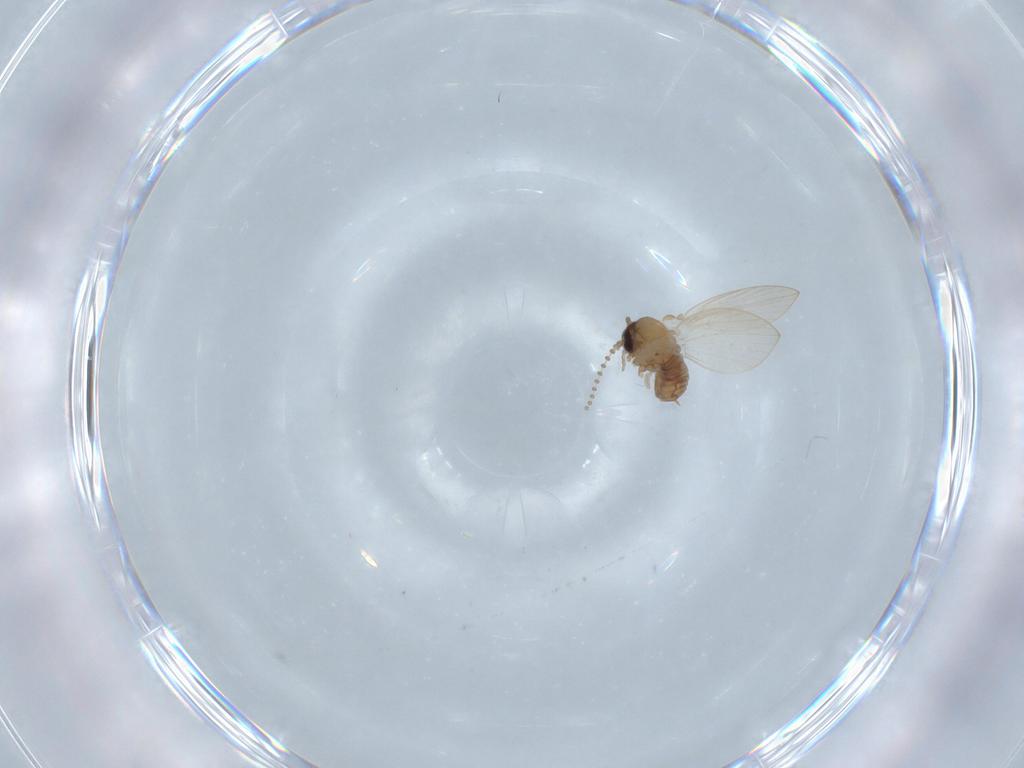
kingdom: Animalia
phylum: Arthropoda
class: Insecta
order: Diptera
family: Psychodidae
